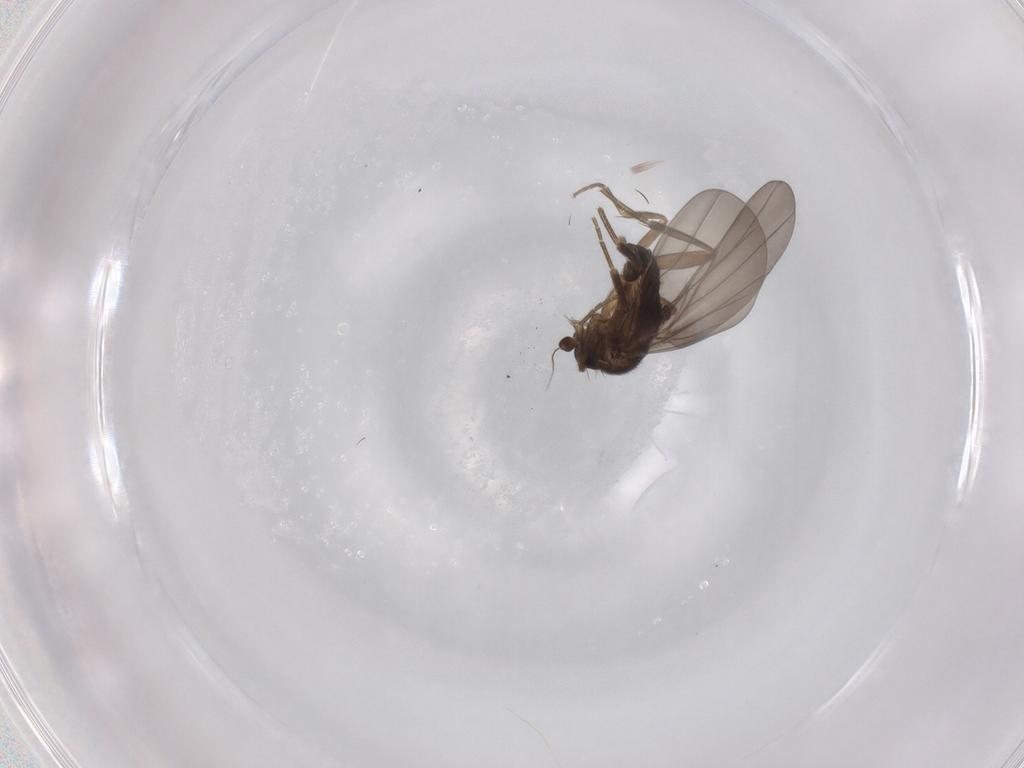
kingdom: Animalia
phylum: Arthropoda
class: Insecta
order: Diptera
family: Phoridae
